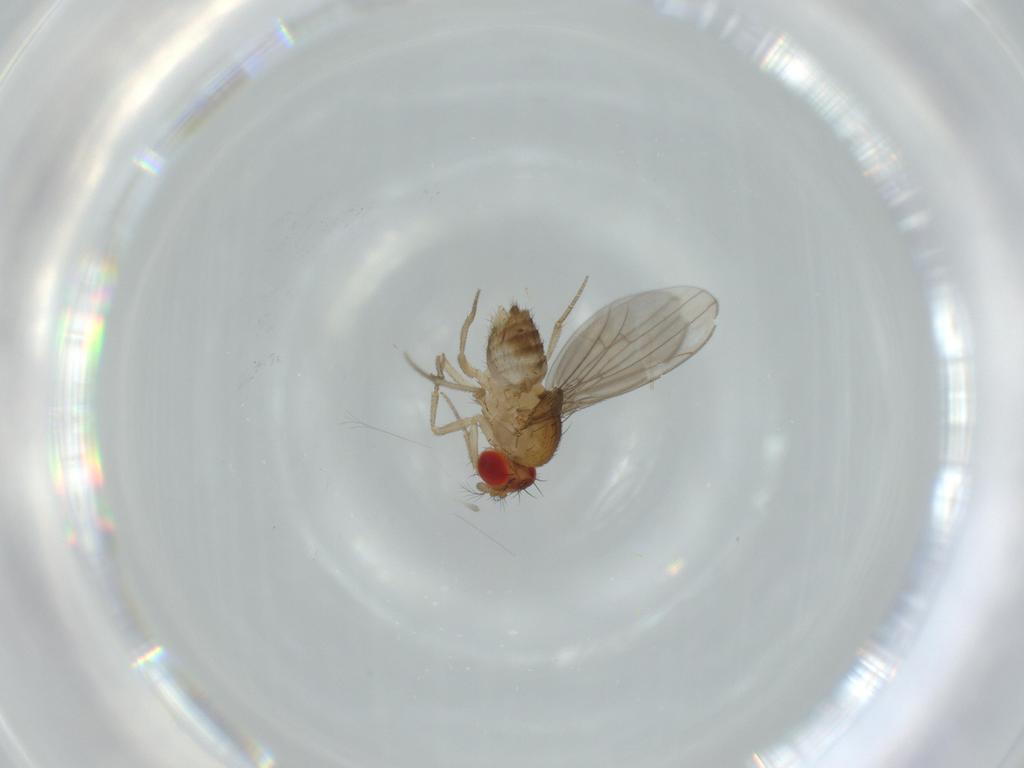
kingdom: Animalia
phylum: Arthropoda
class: Insecta
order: Diptera
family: Drosophilidae
